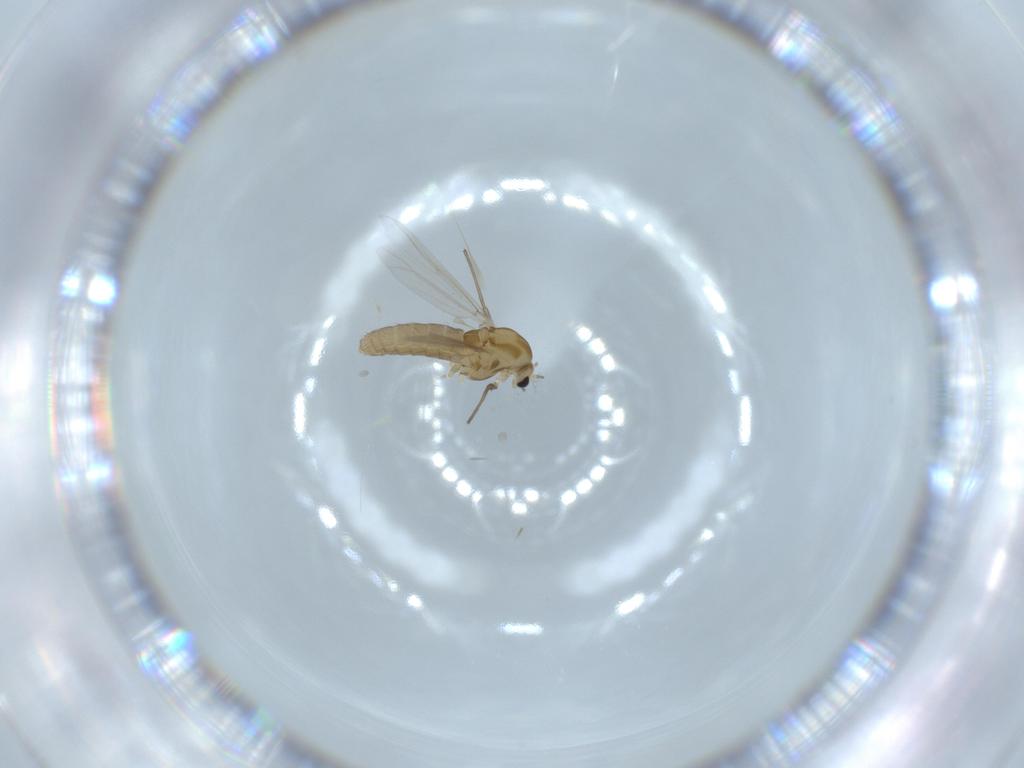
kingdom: Animalia
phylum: Arthropoda
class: Insecta
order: Diptera
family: Chironomidae
